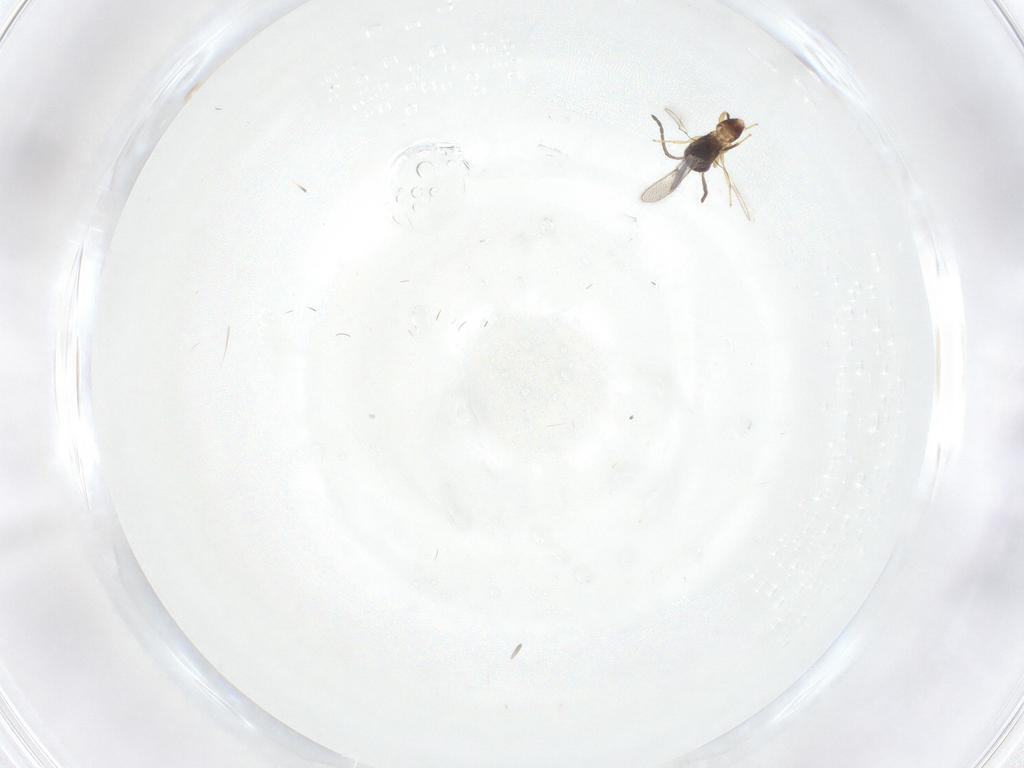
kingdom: Animalia
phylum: Arthropoda
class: Insecta
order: Hymenoptera
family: Mymaridae
